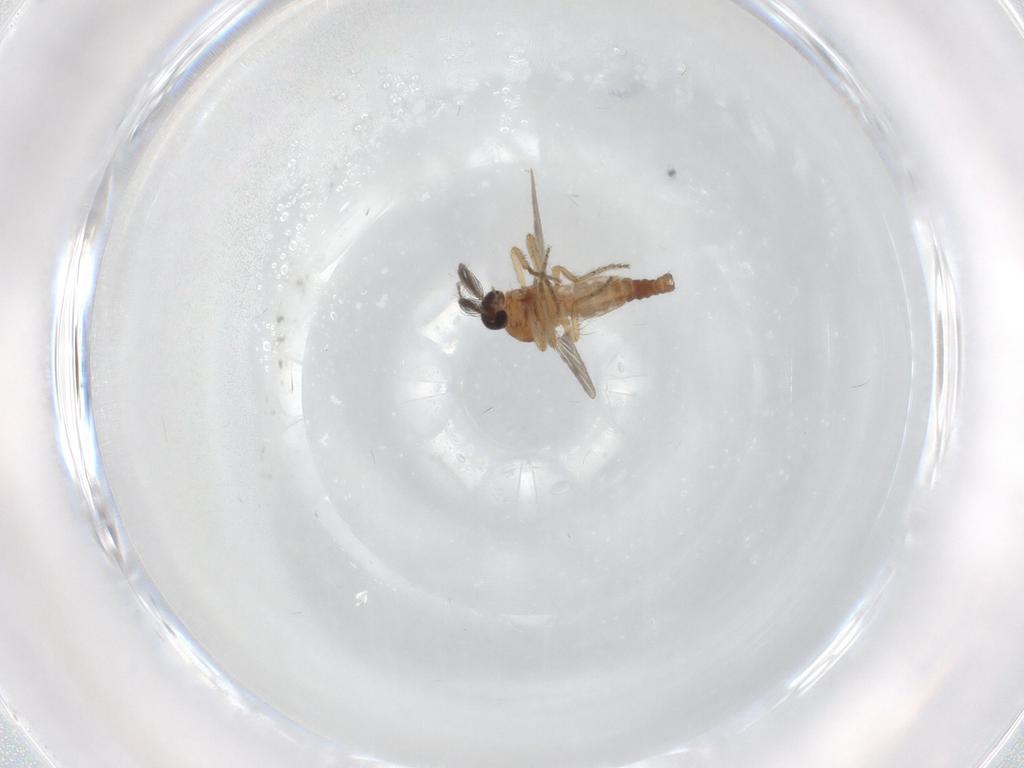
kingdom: Animalia
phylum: Arthropoda
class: Insecta
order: Diptera
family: Ceratopogonidae
